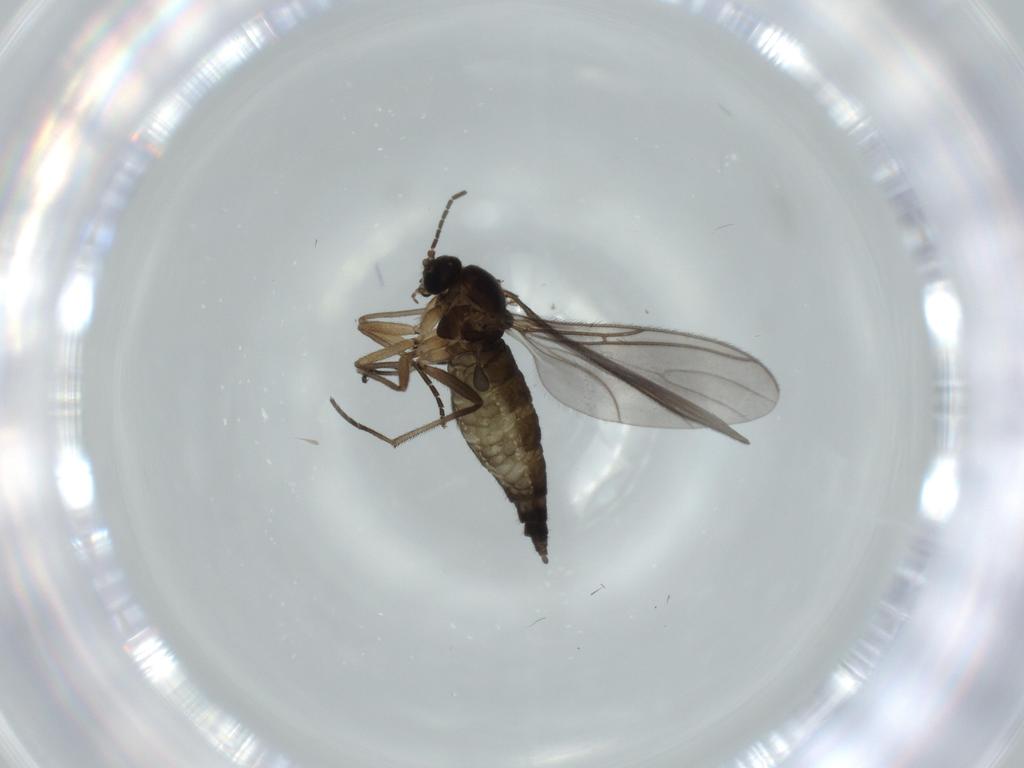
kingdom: Animalia
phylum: Arthropoda
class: Insecta
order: Diptera
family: Sciaridae
